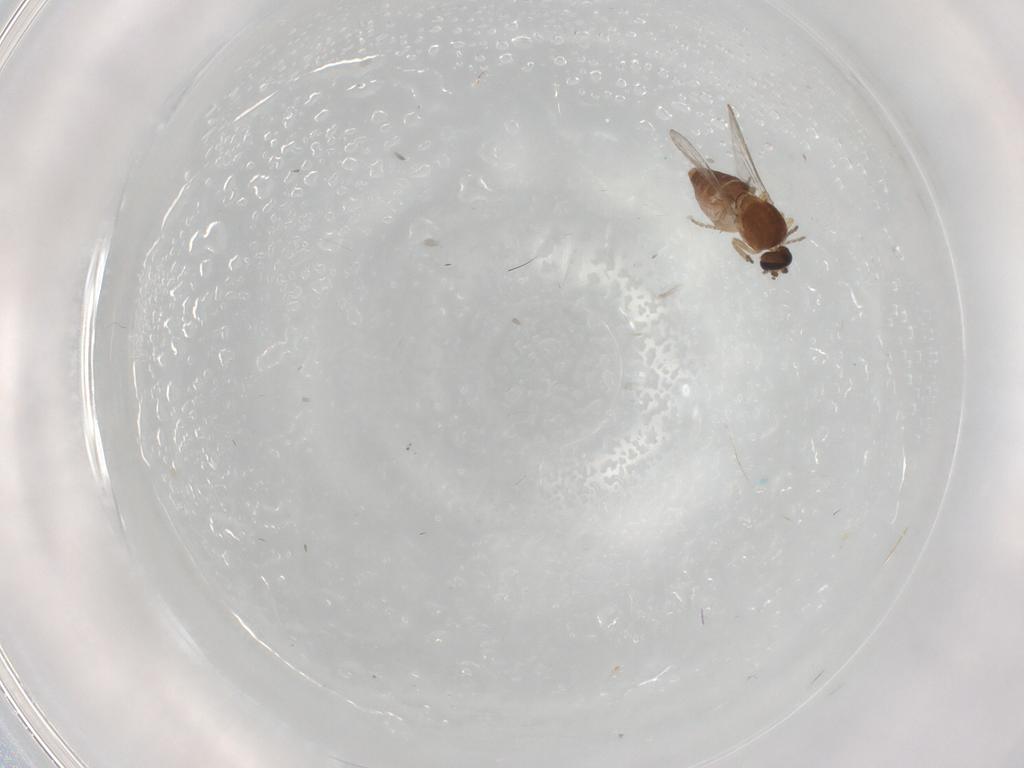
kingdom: Animalia
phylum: Arthropoda
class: Insecta
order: Diptera
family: Ceratopogonidae
